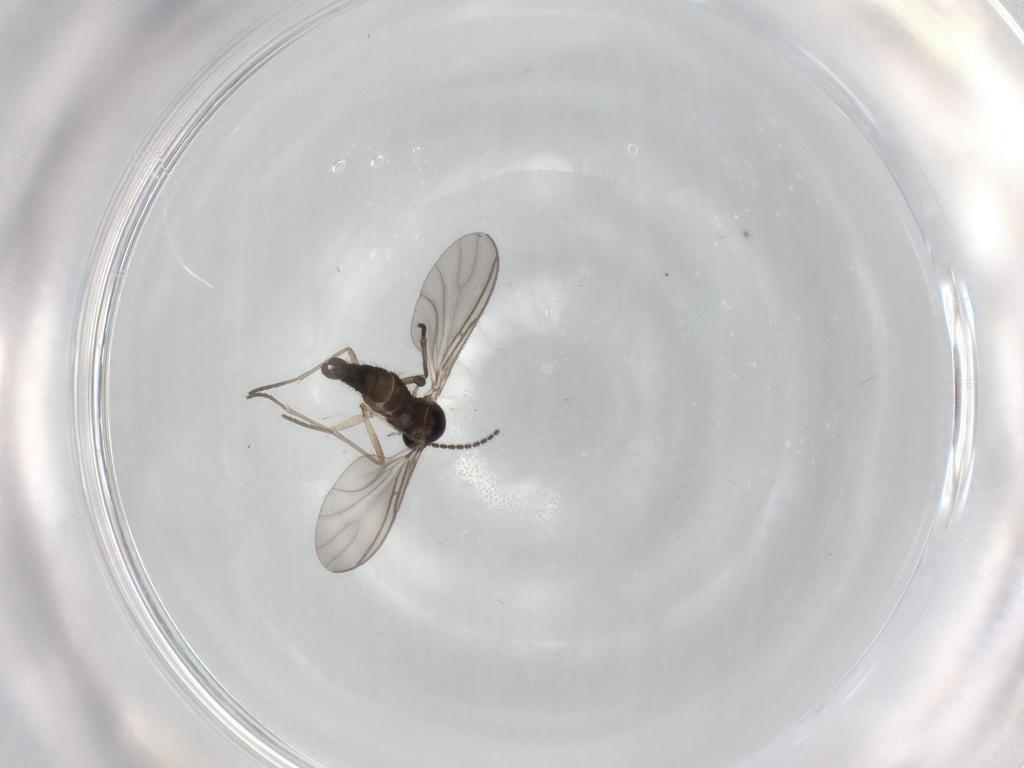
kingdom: Animalia
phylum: Arthropoda
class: Insecta
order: Diptera
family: Sciaridae
